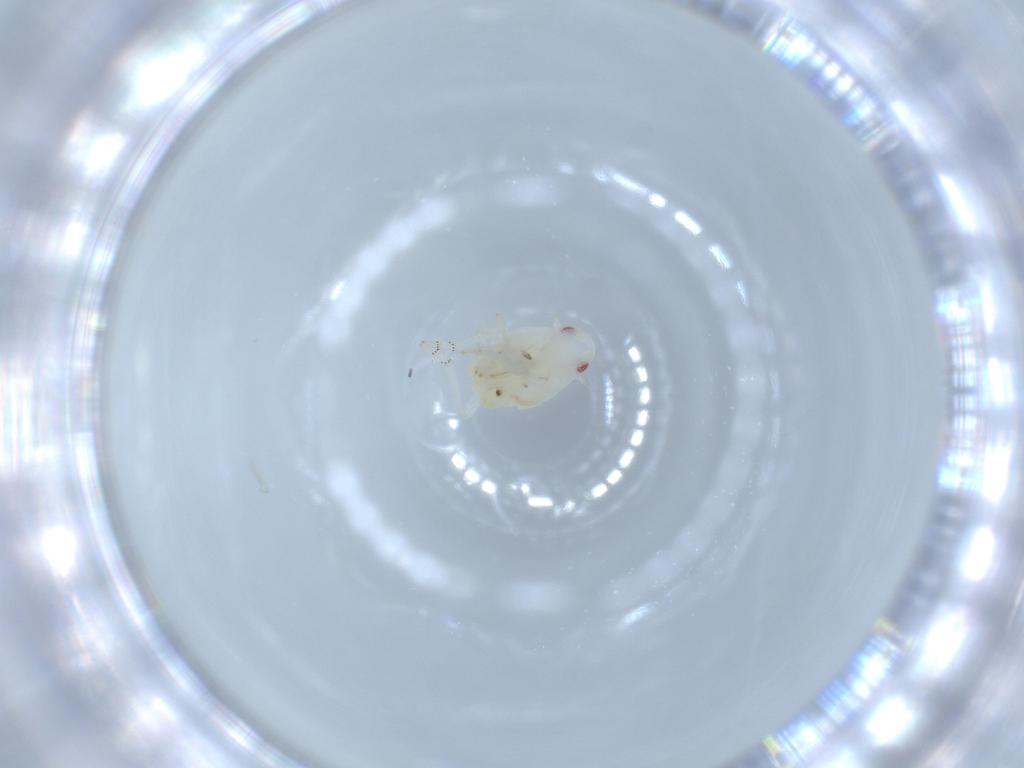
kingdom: Animalia
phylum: Arthropoda
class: Insecta
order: Hemiptera
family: Flatidae
